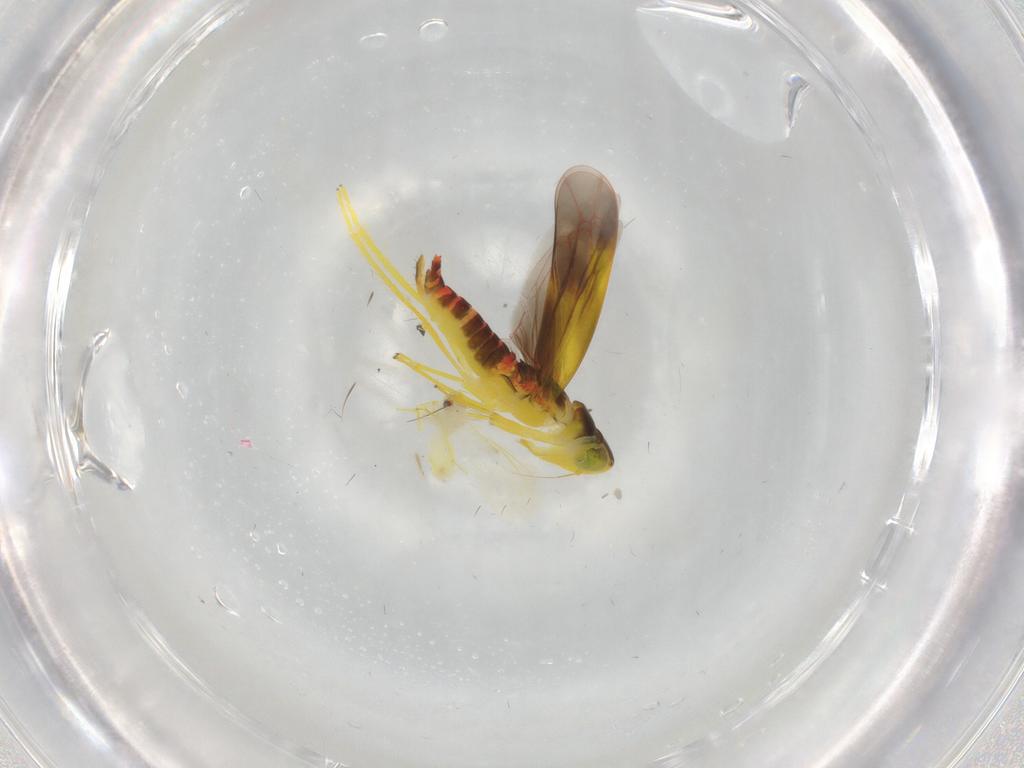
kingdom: Animalia
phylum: Arthropoda
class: Insecta
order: Hemiptera
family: Cicadellidae
